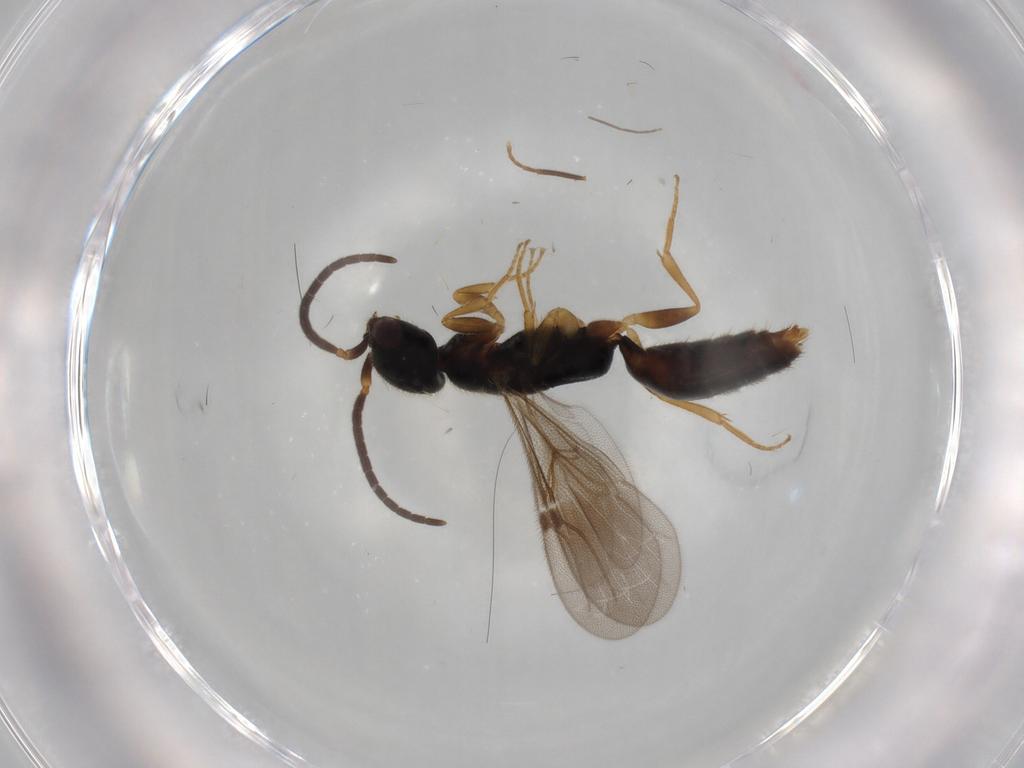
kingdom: Animalia
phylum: Arthropoda
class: Insecta
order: Hymenoptera
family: Formicidae
